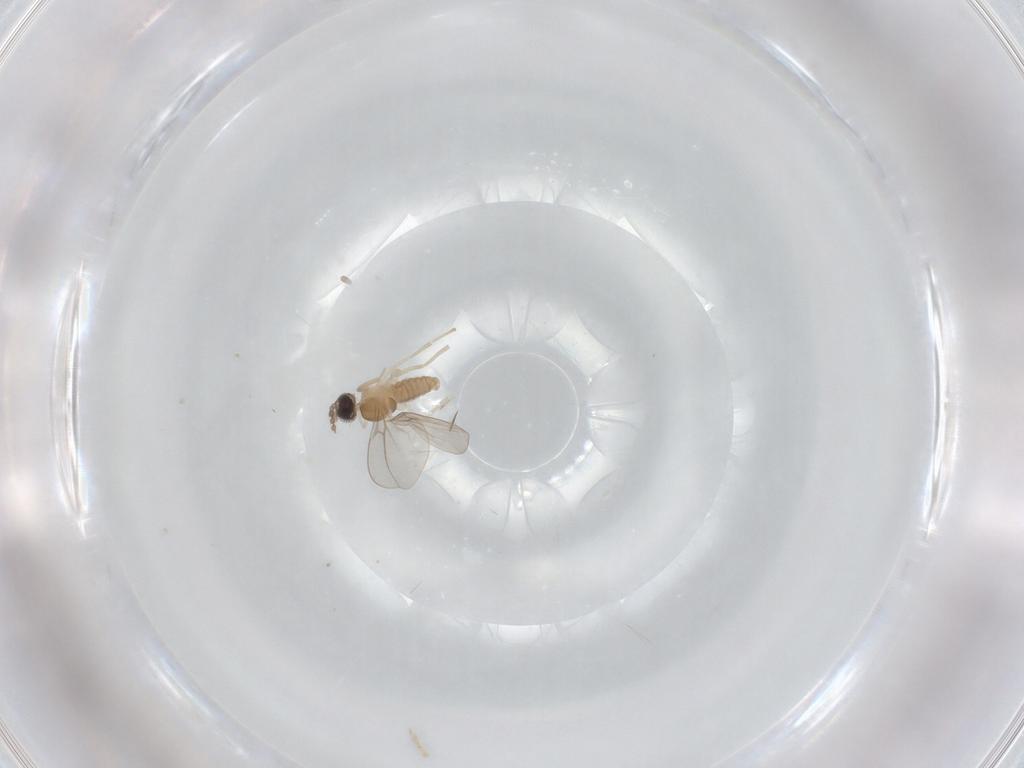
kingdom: Animalia
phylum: Arthropoda
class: Insecta
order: Diptera
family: Cecidomyiidae
